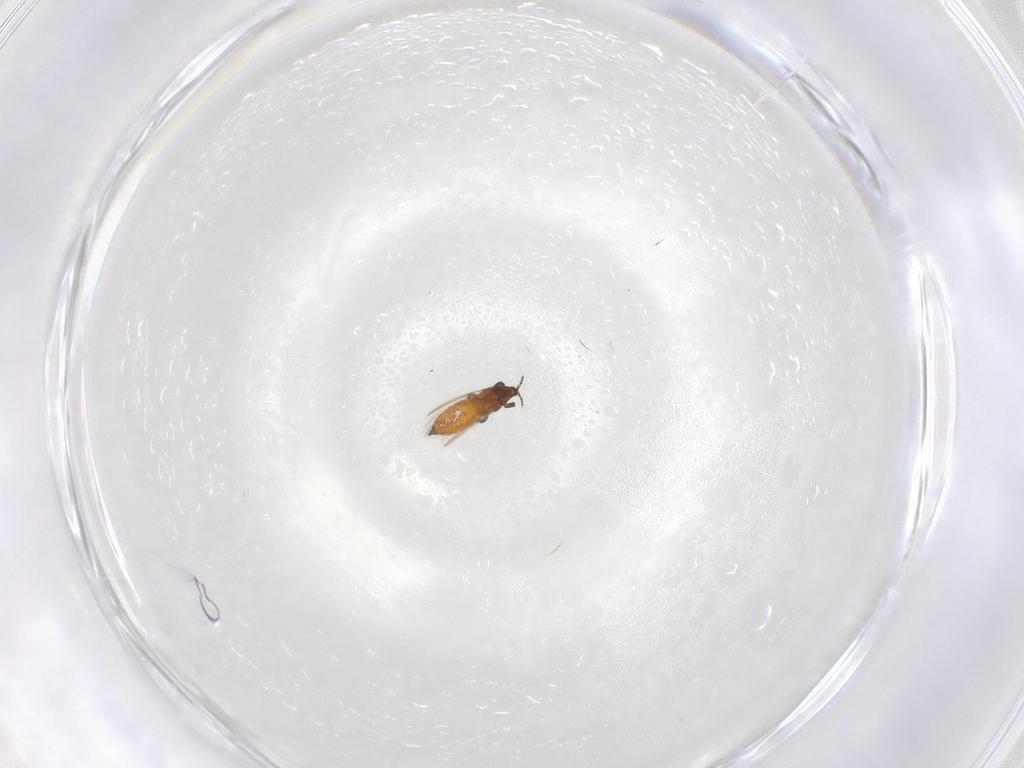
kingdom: Animalia
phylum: Arthropoda
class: Insecta
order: Thysanoptera
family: Thripidae
